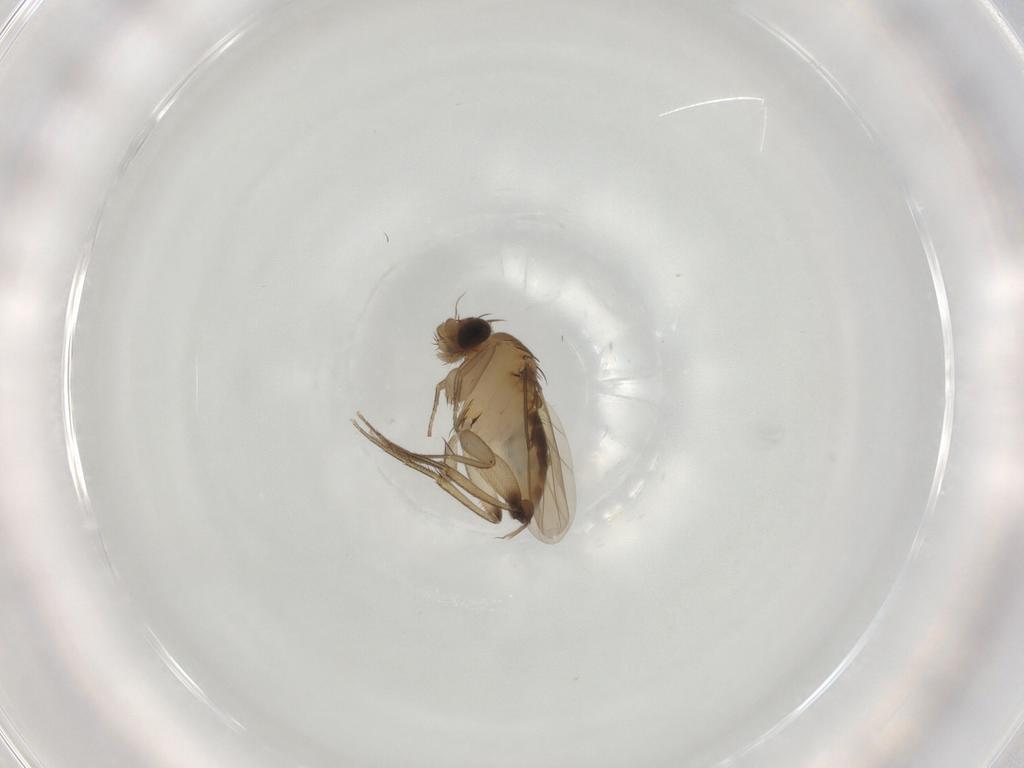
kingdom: Animalia
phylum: Arthropoda
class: Insecta
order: Diptera
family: Phoridae
